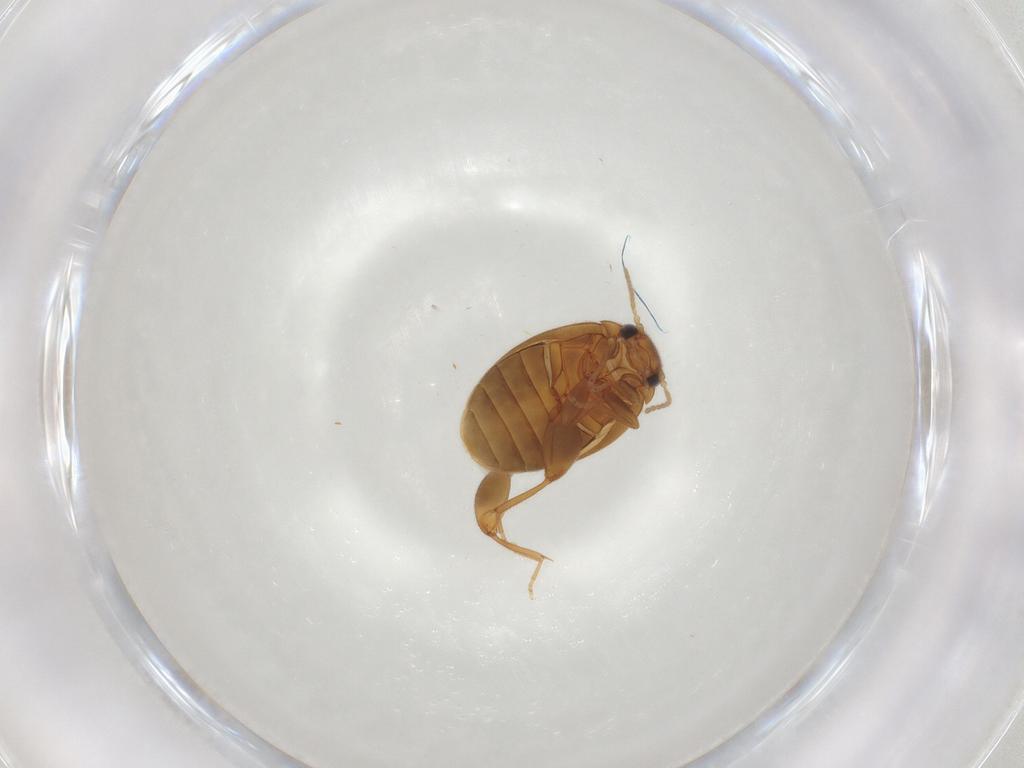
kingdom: Animalia
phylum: Arthropoda
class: Insecta
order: Coleoptera
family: Scirtidae
